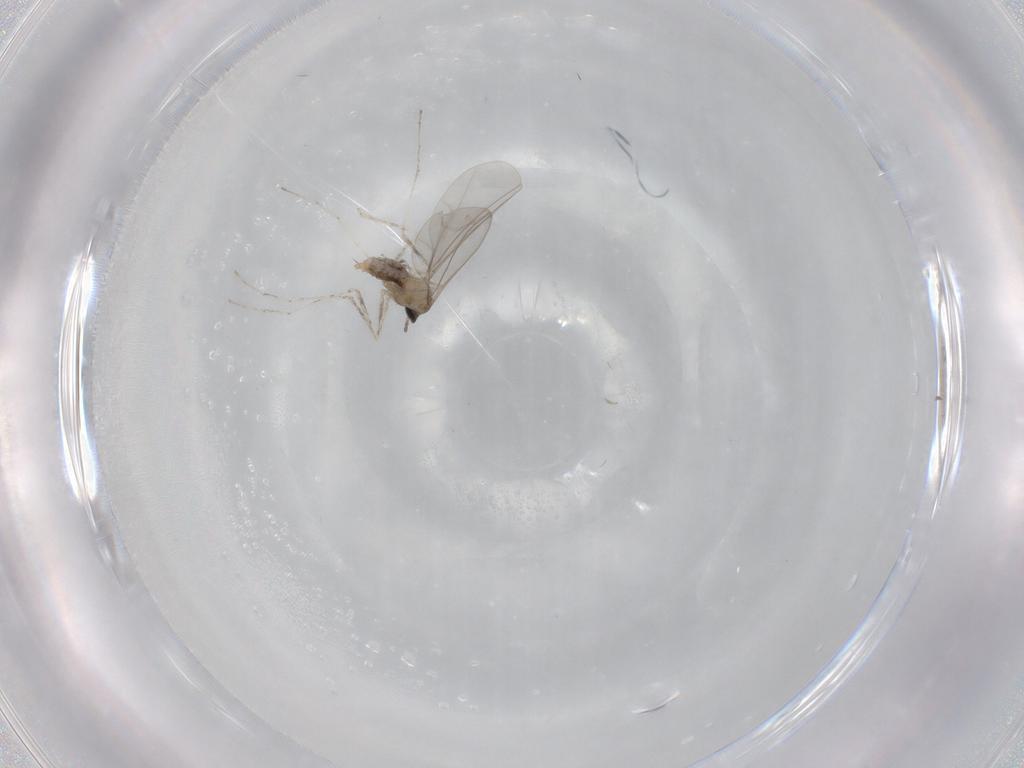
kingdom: Animalia
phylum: Arthropoda
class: Insecta
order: Diptera
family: Cecidomyiidae
